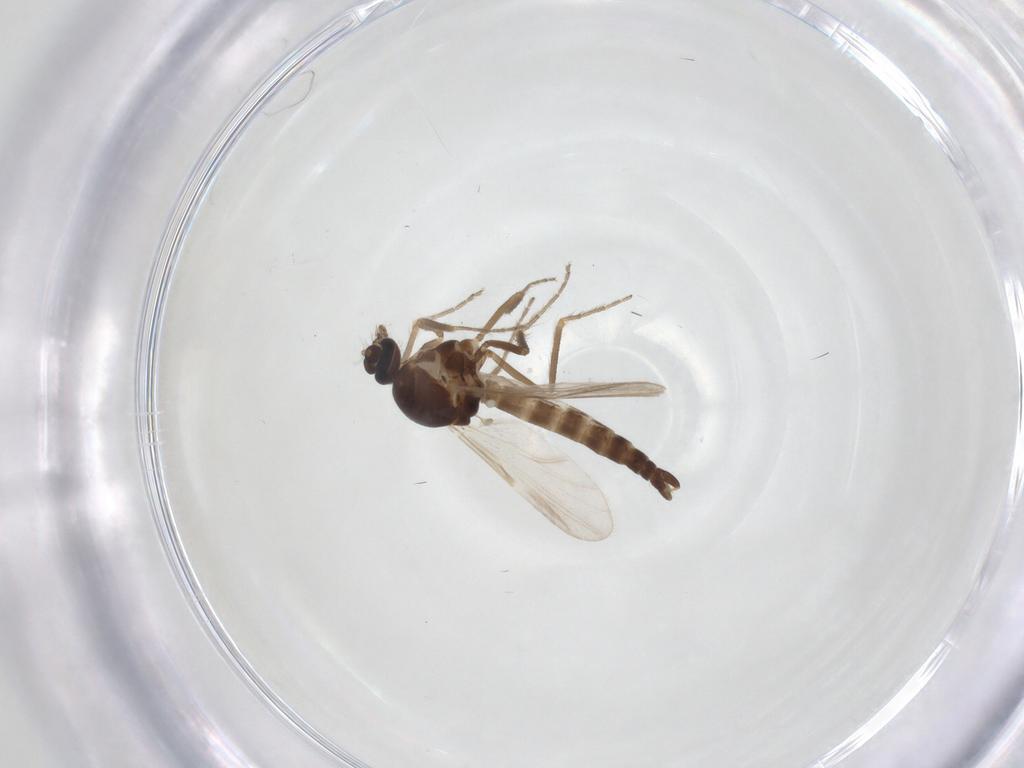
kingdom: Animalia
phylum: Arthropoda
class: Insecta
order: Diptera
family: Ceratopogonidae
